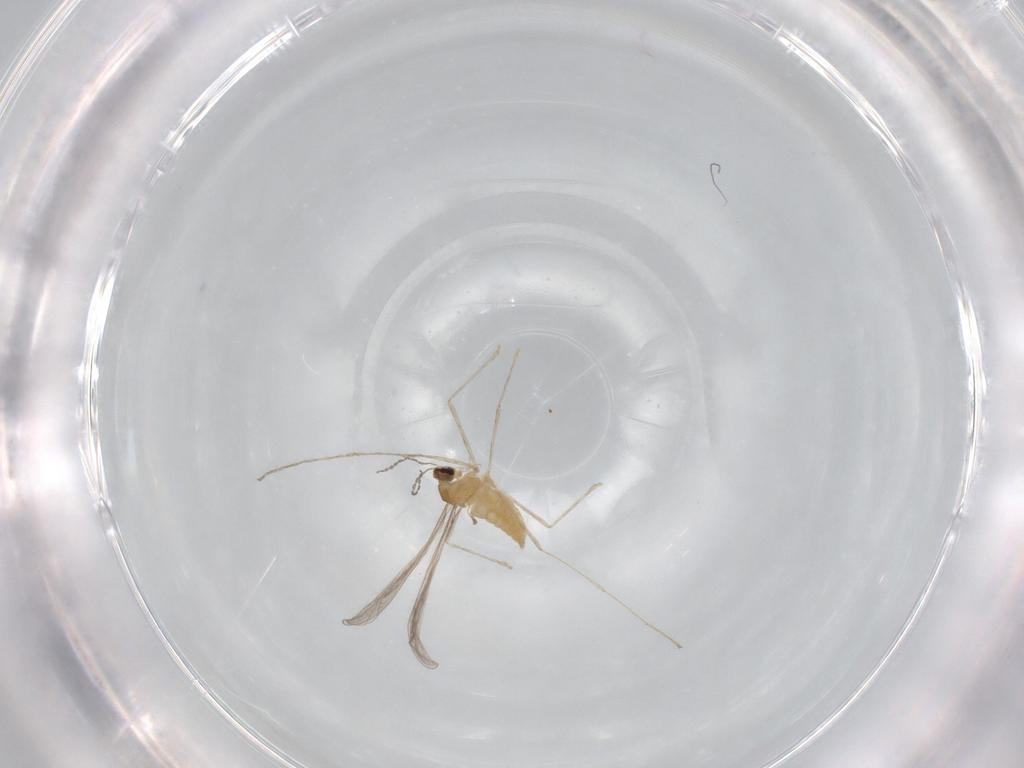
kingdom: Animalia
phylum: Arthropoda
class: Insecta
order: Diptera
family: Cecidomyiidae
